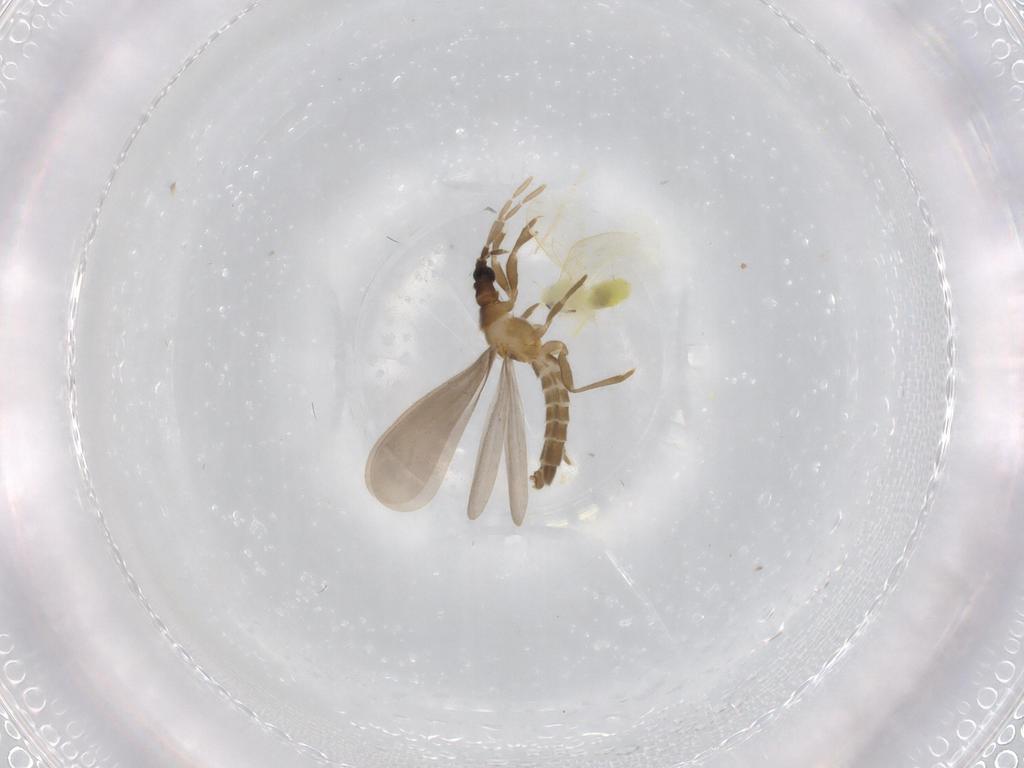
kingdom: Animalia
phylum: Arthropoda
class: Insecta
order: Hemiptera
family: Enicocephalidae
